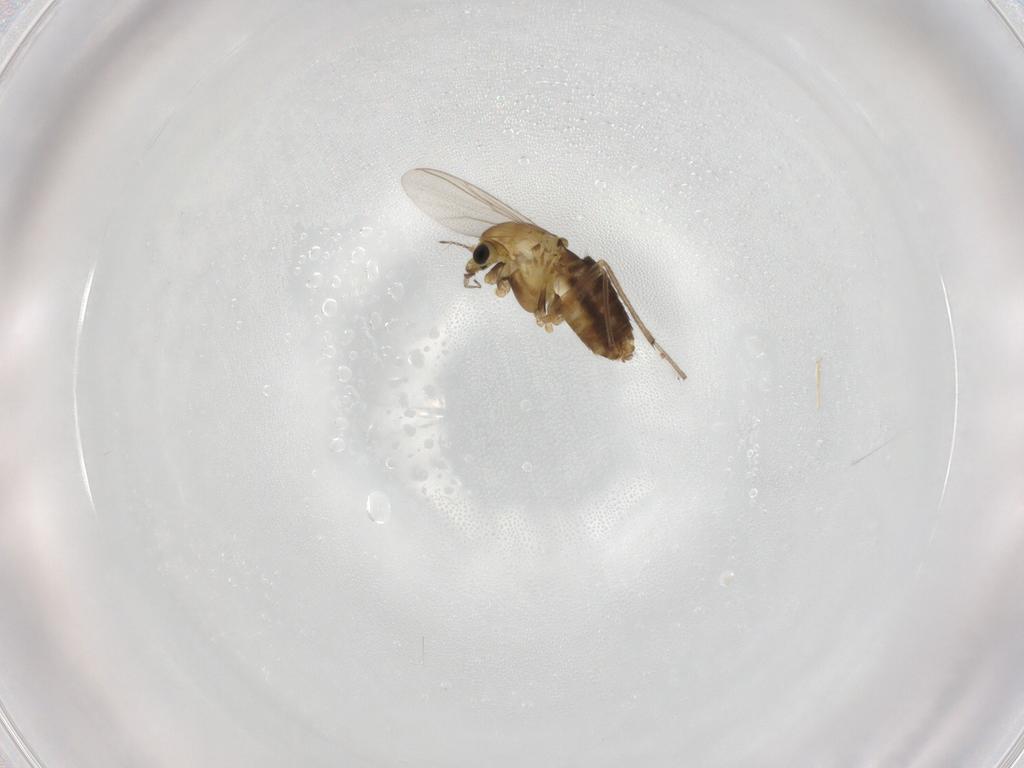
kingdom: Animalia
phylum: Arthropoda
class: Insecta
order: Diptera
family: Chironomidae
